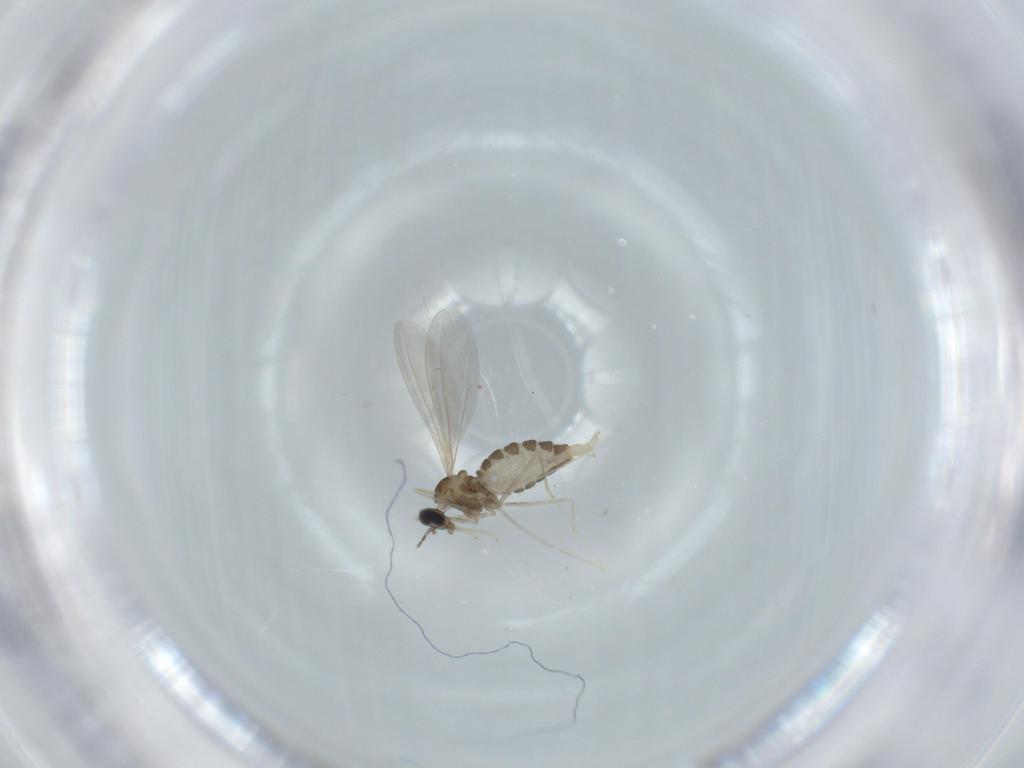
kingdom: Animalia
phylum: Arthropoda
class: Insecta
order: Diptera
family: Cecidomyiidae
